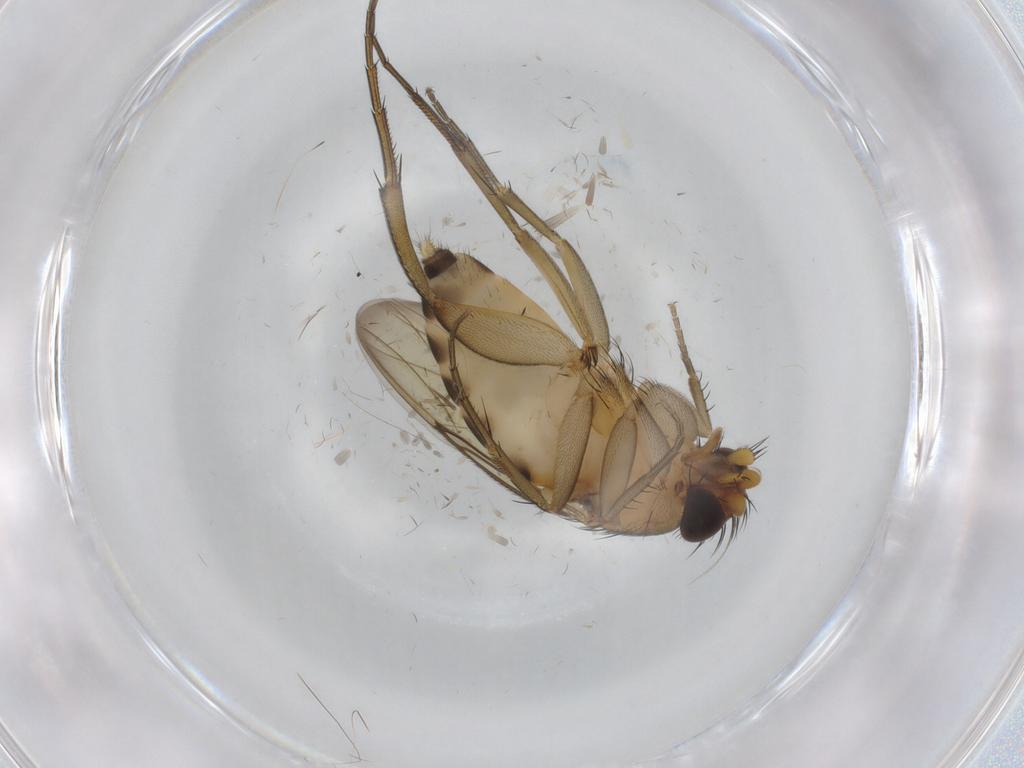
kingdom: Animalia
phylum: Arthropoda
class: Insecta
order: Diptera
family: Phoridae
